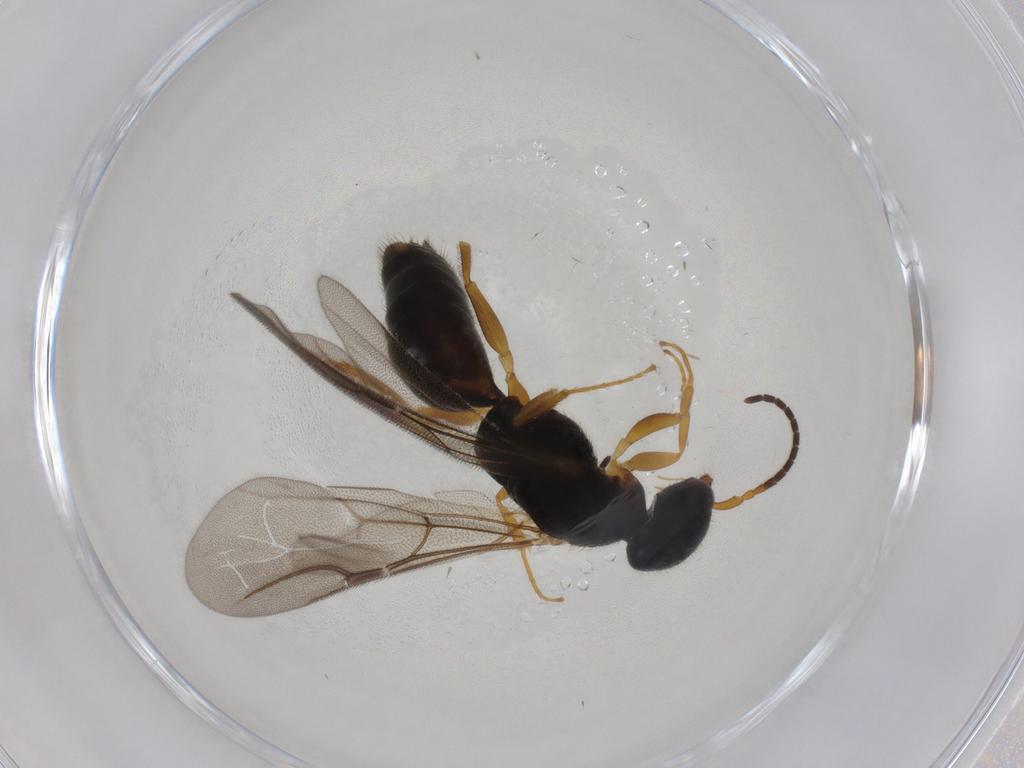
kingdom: Animalia
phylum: Arthropoda
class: Insecta
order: Hymenoptera
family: Bethylidae
